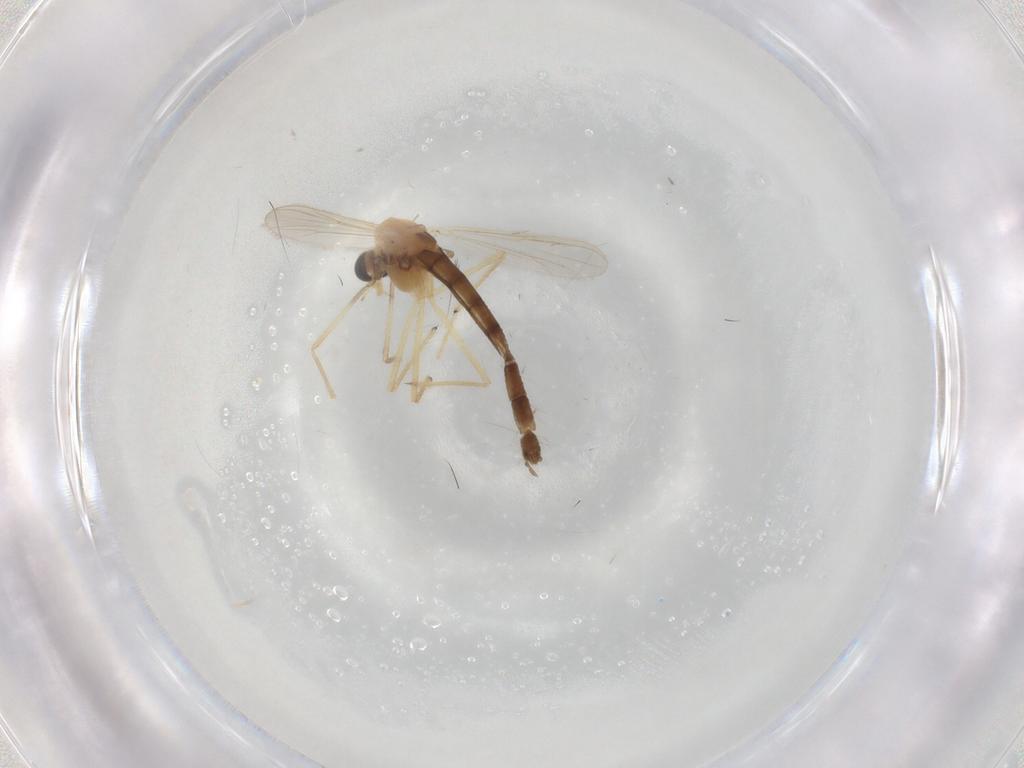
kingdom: Animalia
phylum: Arthropoda
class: Insecta
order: Diptera
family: Chironomidae
